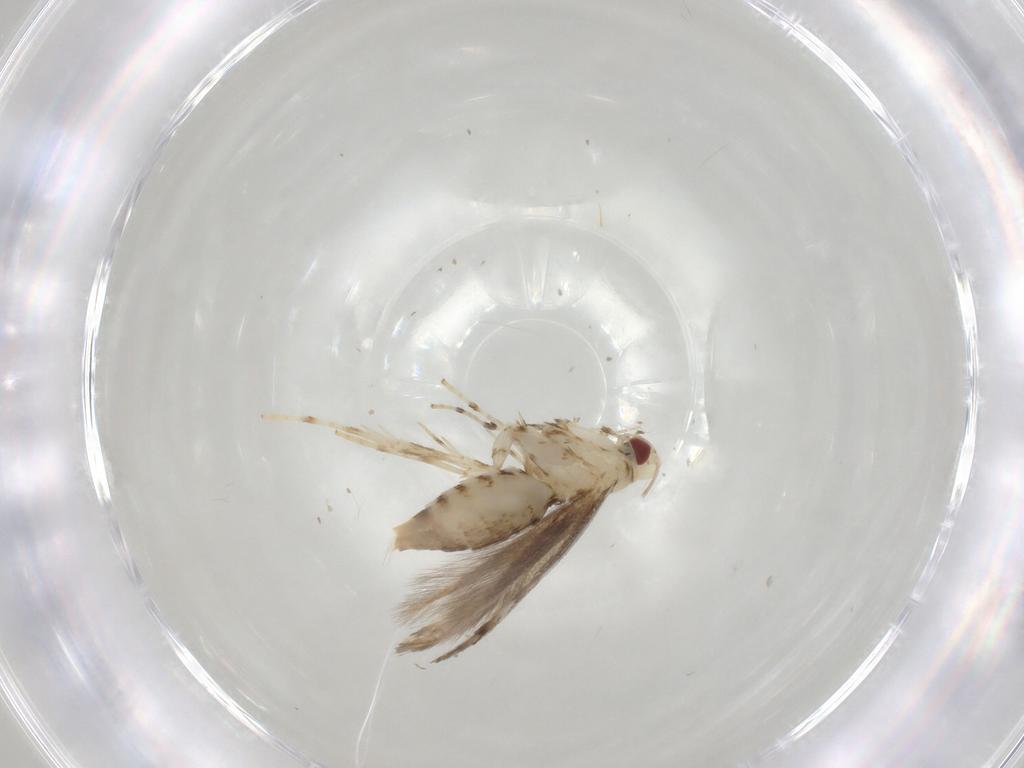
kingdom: Animalia
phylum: Arthropoda
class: Insecta
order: Lepidoptera
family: Gracillariidae
